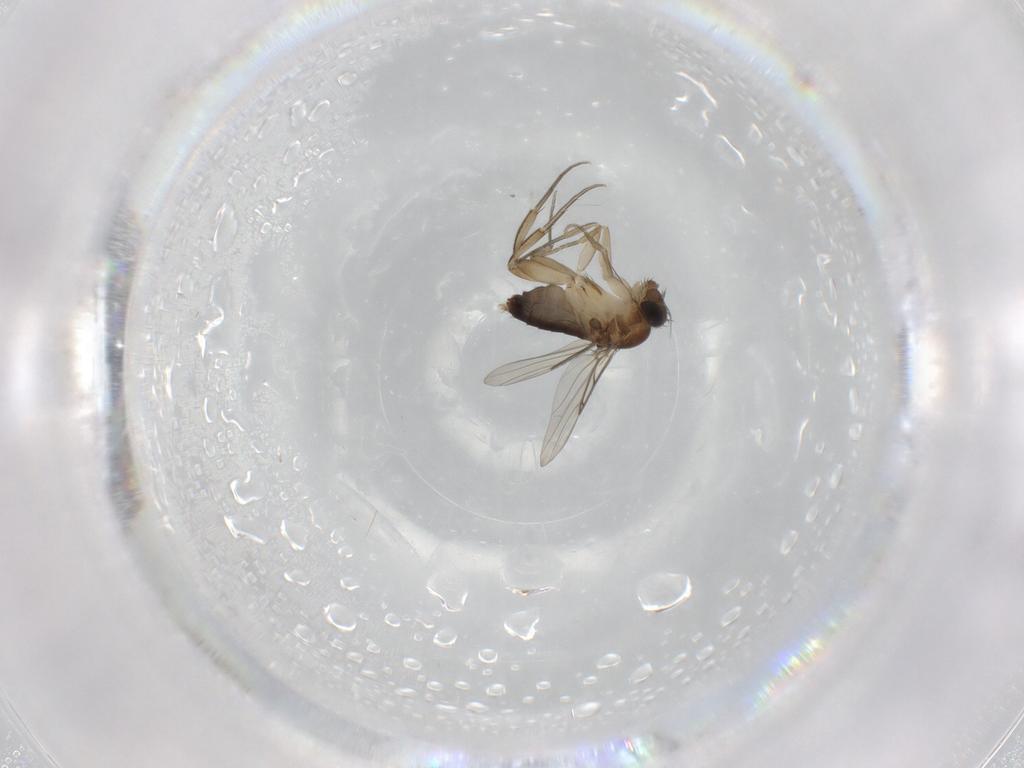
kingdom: Animalia
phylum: Arthropoda
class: Insecta
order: Diptera
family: Phoridae
